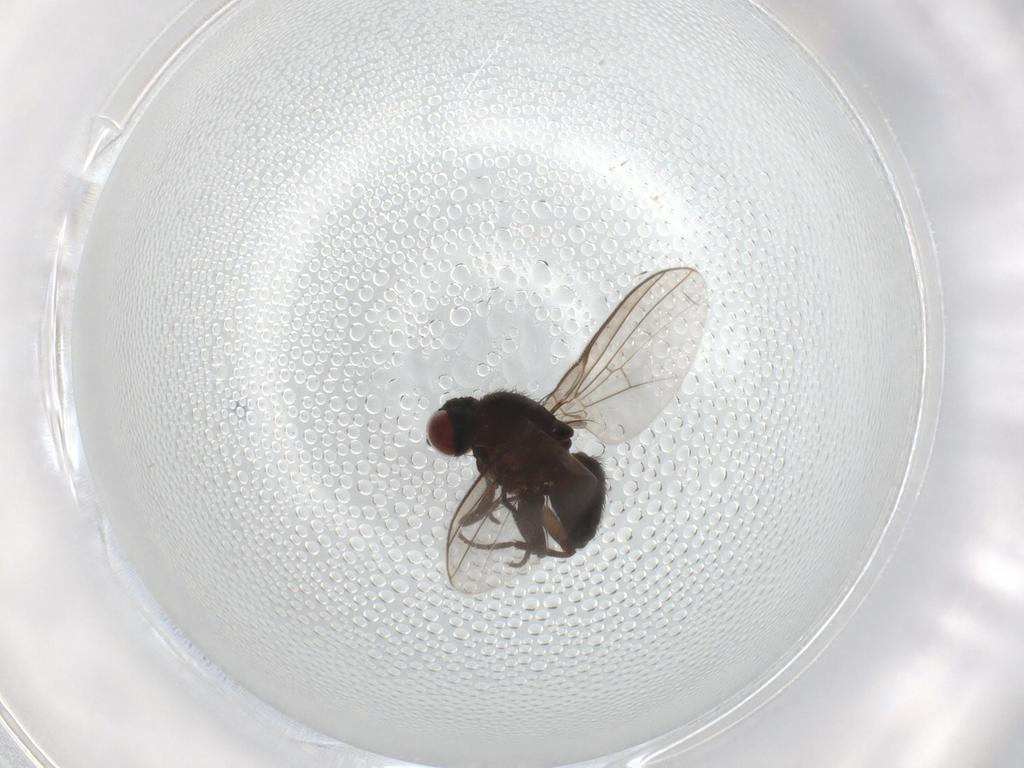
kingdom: Animalia
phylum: Arthropoda
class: Insecta
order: Diptera
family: Agromyzidae
